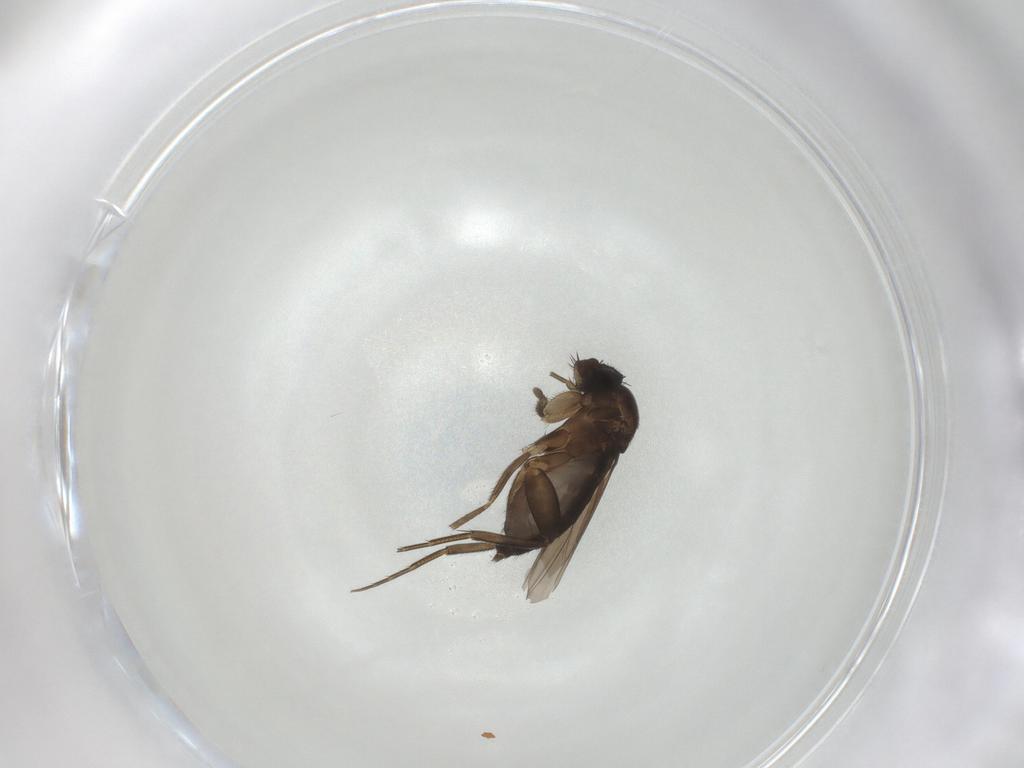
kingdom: Animalia
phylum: Arthropoda
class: Insecta
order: Diptera
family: Phoridae
